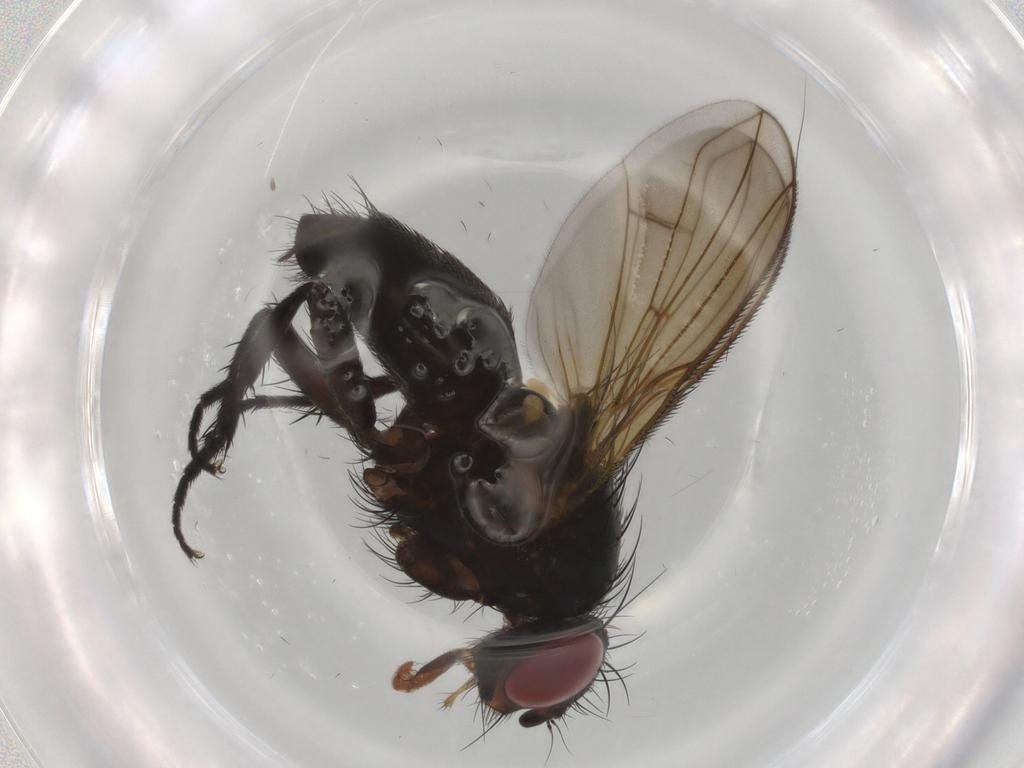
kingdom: Animalia
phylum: Arthropoda
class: Insecta
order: Diptera
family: Calliphoridae
